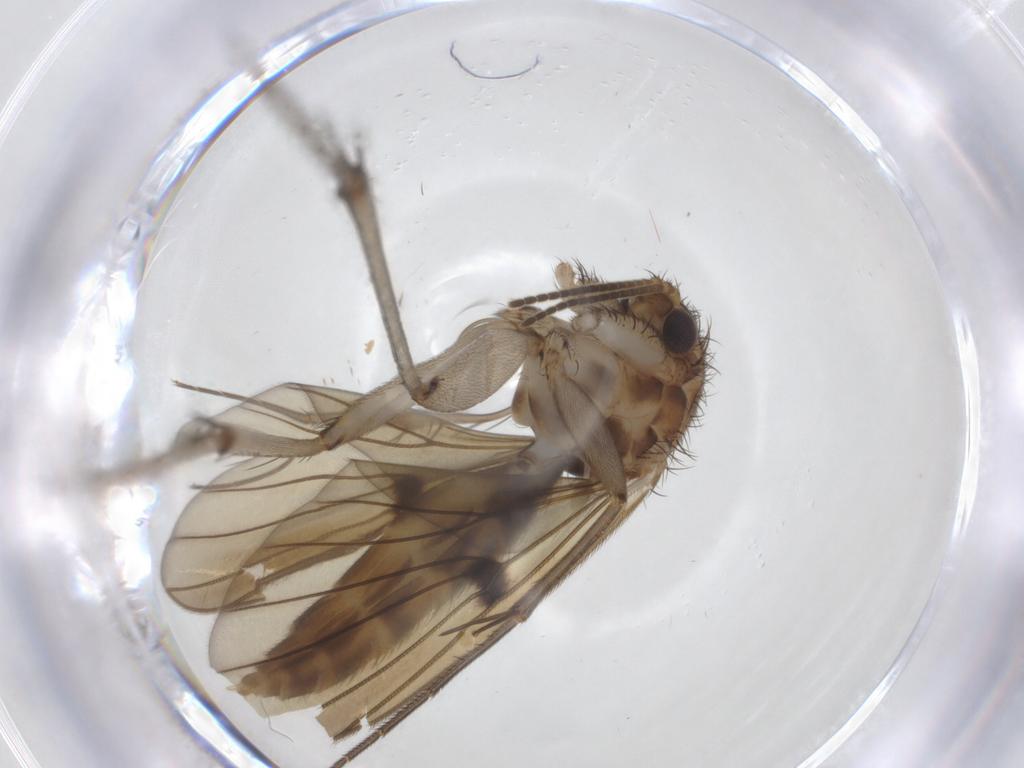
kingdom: Animalia
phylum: Arthropoda
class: Insecta
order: Diptera
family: Mycetophilidae
